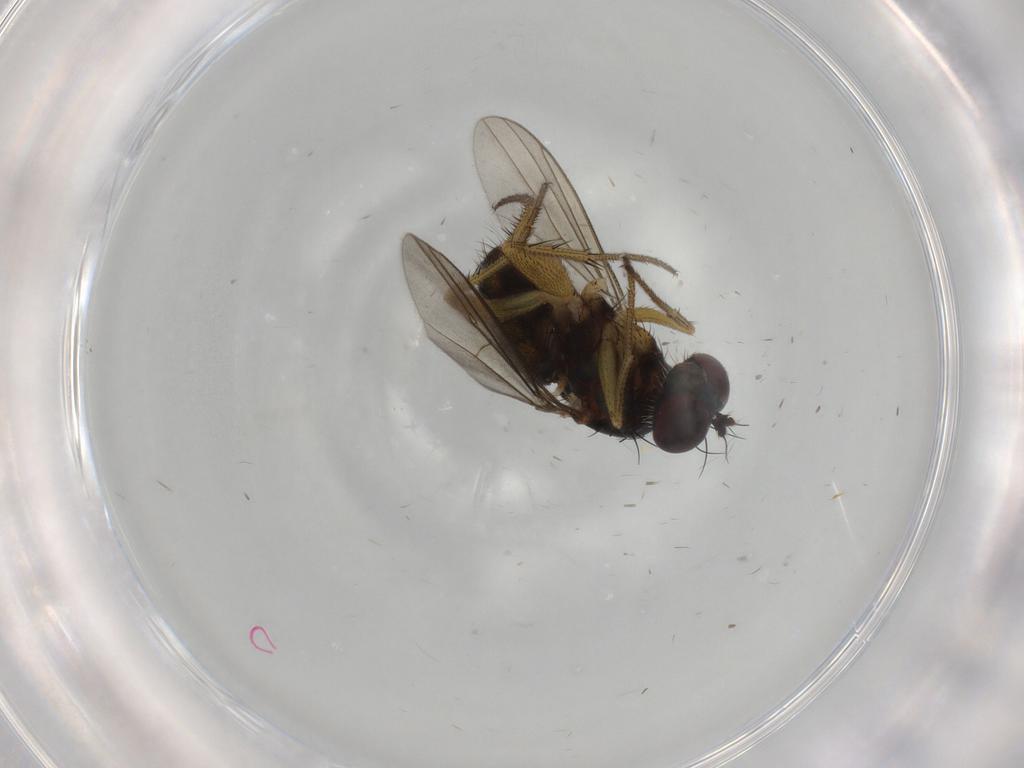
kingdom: Animalia
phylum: Arthropoda
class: Insecta
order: Diptera
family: Dolichopodidae
